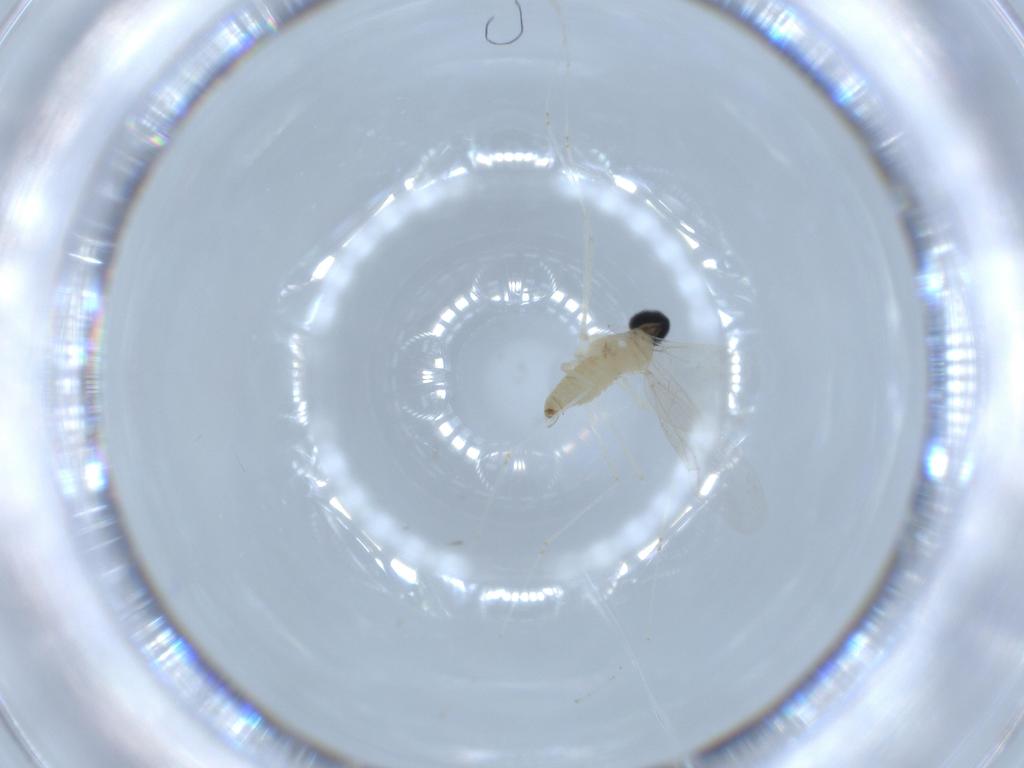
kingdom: Animalia
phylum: Arthropoda
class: Insecta
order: Diptera
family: Cecidomyiidae
